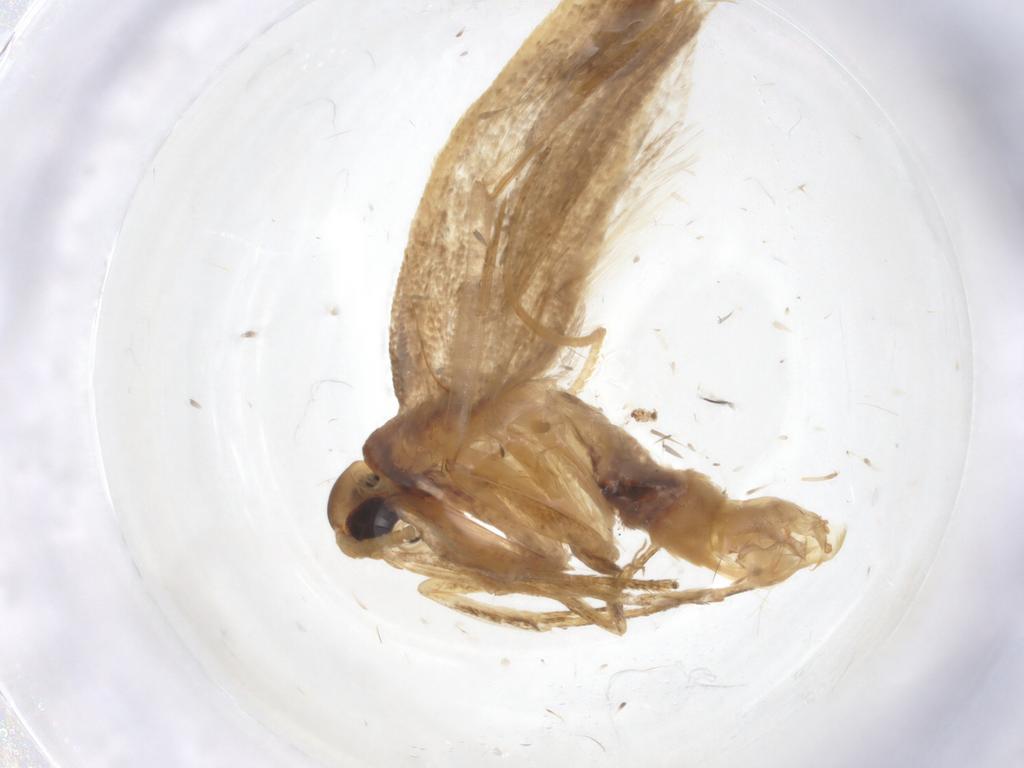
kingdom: Animalia
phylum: Arthropoda
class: Insecta
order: Lepidoptera
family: Lecithoceridae
